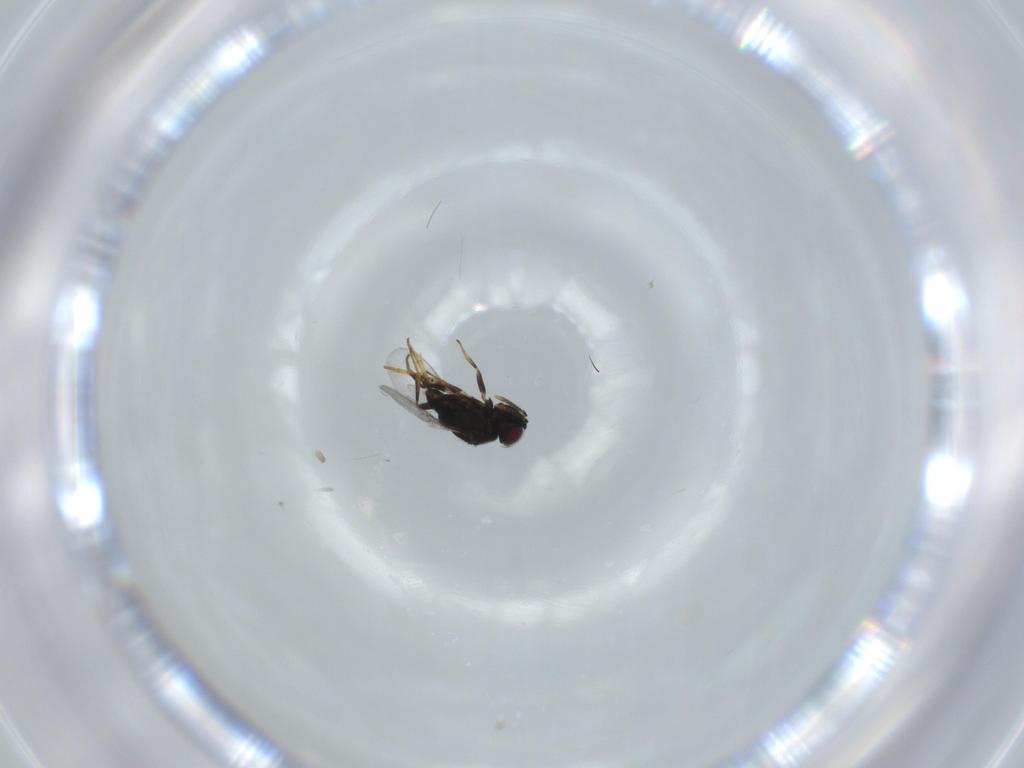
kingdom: Animalia
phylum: Arthropoda
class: Insecta
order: Hymenoptera
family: Encyrtidae
